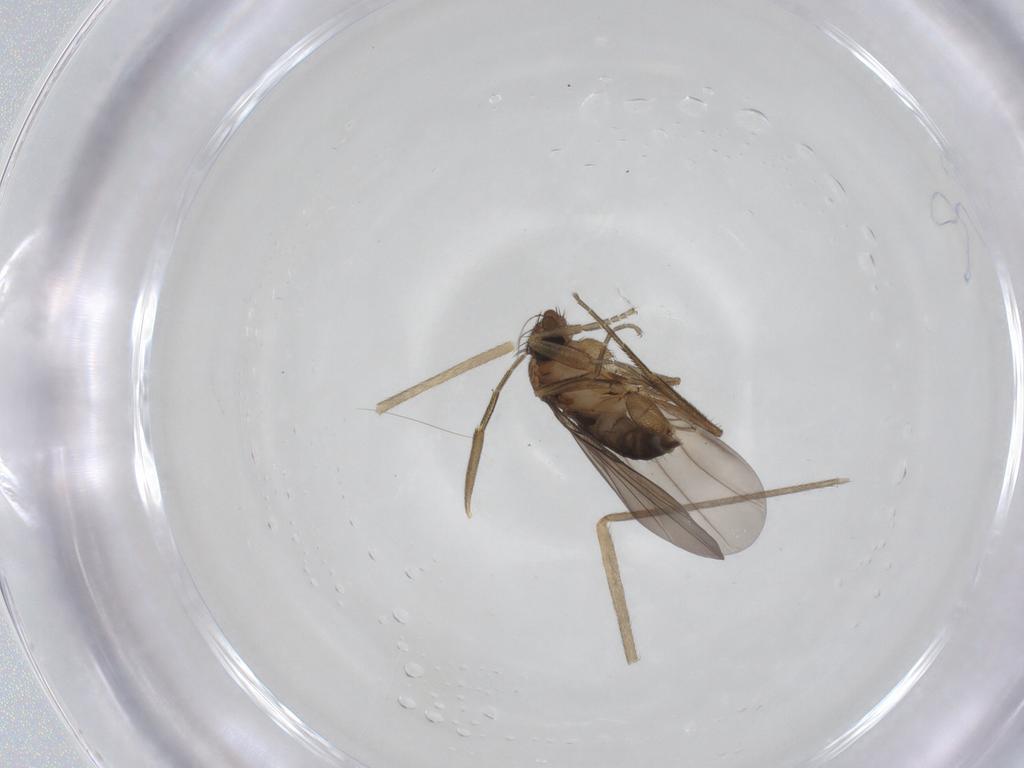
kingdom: Animalia
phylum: Arthropoda
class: Insecta
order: Diptera
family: Limoniidae
